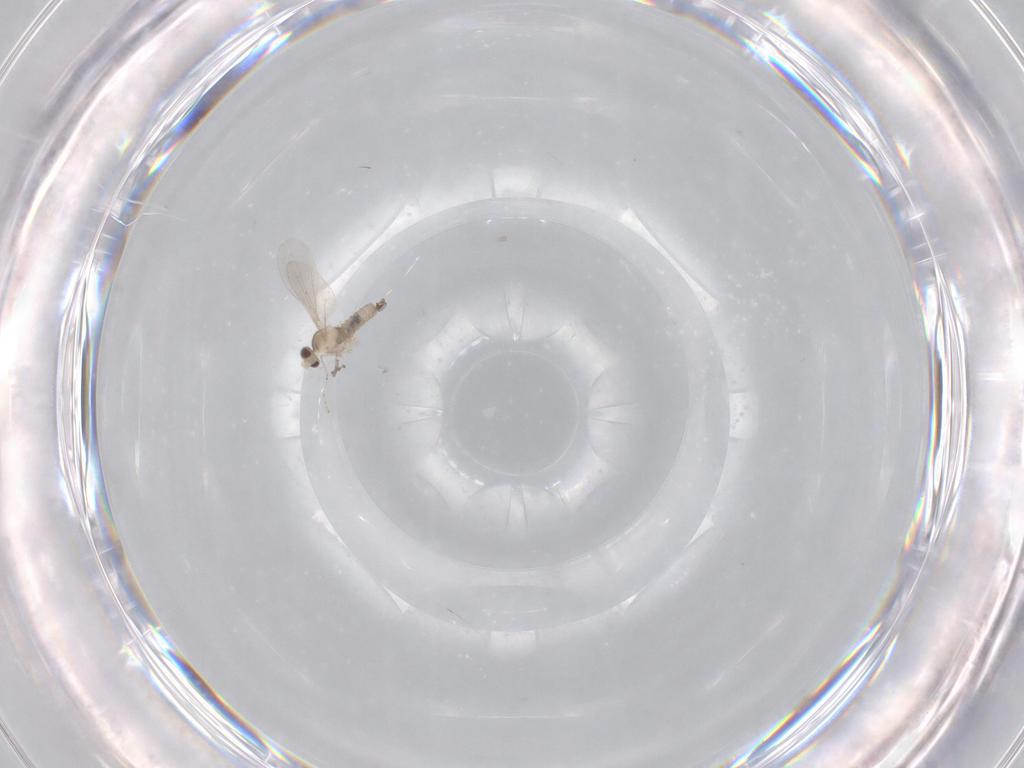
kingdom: Animalia
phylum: Arthropoda
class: Insecta
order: Diptera
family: Cecidomyiidae
